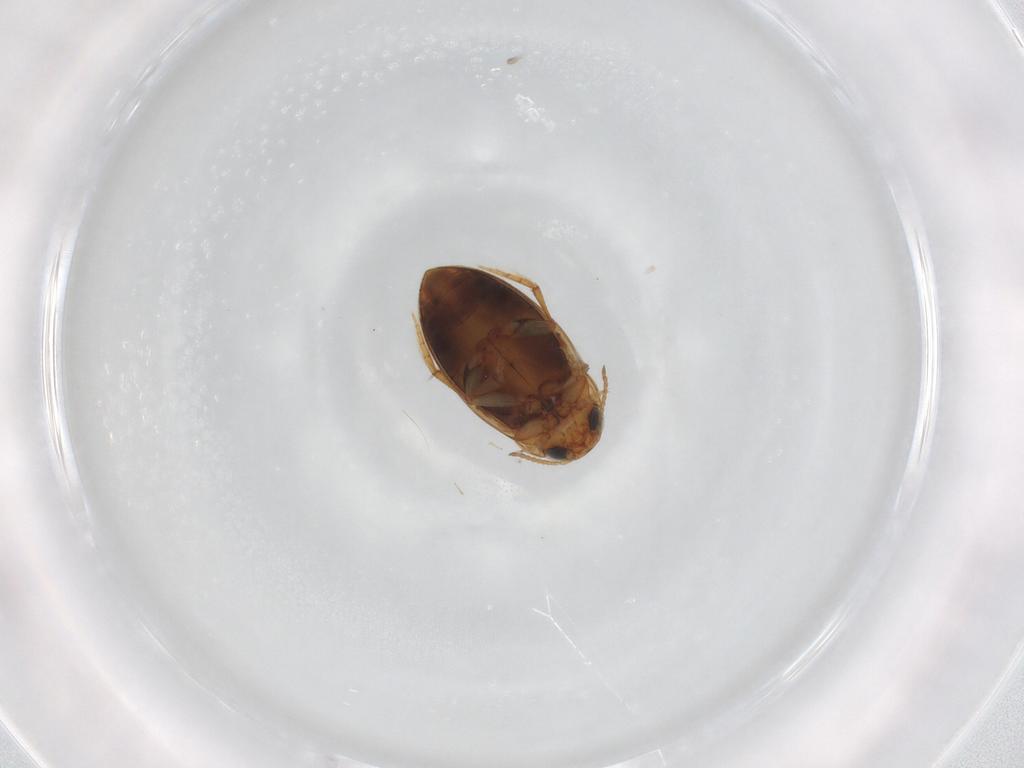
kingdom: Animalia
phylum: Arthropoda
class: Insecta
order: Coleoptera
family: Dytiscidae
